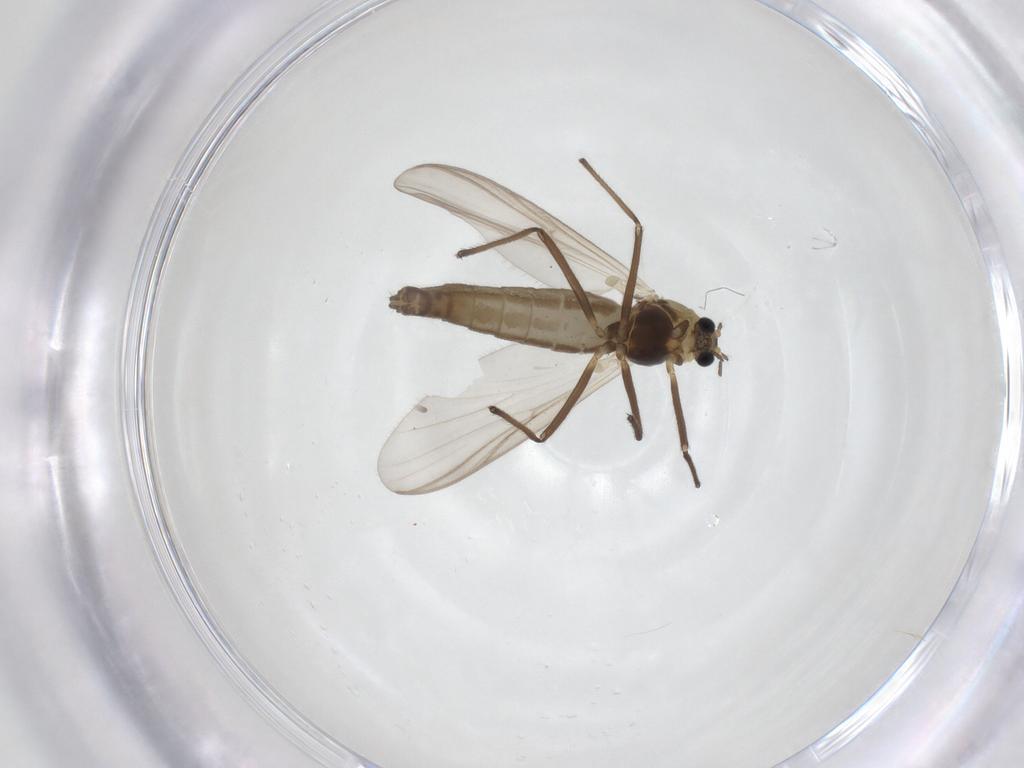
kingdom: Animalia
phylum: Arthropoda
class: Insecta
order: Diptera
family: Chironomidae
